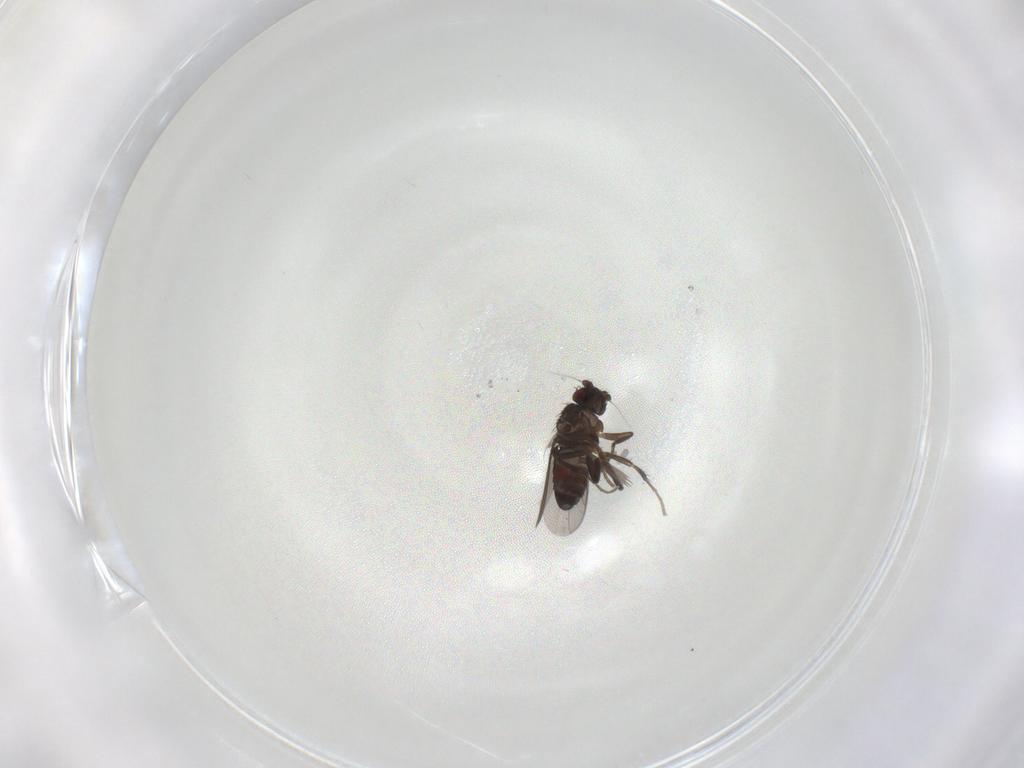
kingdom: Animalia
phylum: Arthropoda
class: Insecta
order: Diptera
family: Sphaeroceridae
